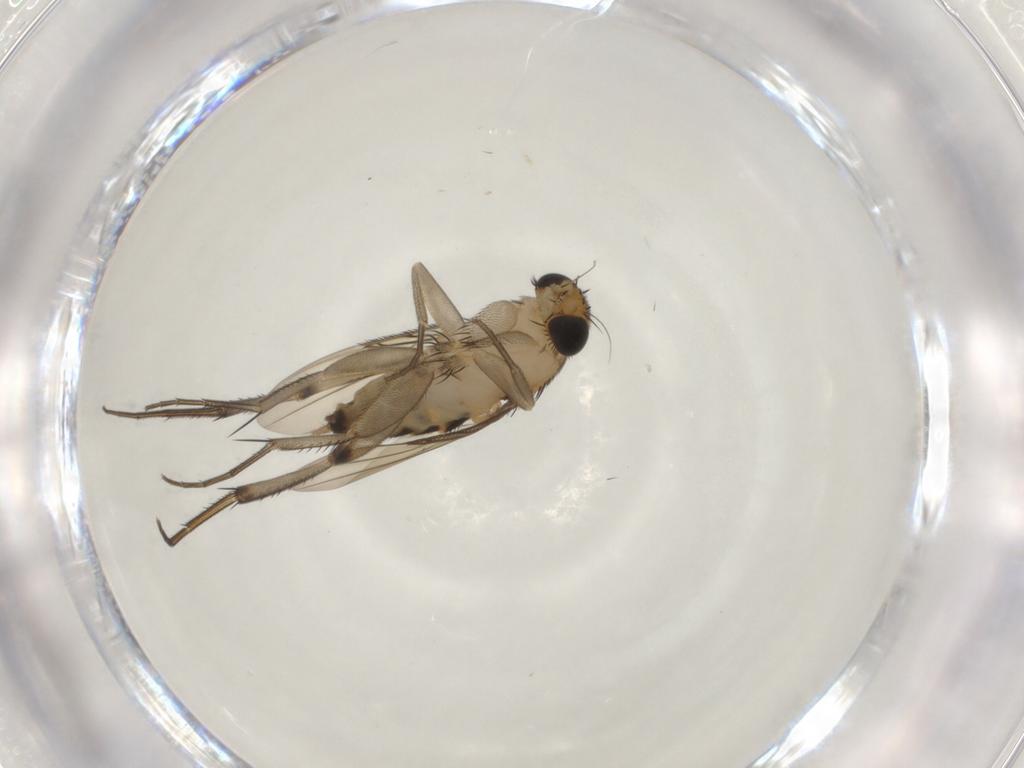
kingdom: Animalia
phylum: Arthropoda
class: Insecta
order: Diptera
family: Phoridae
